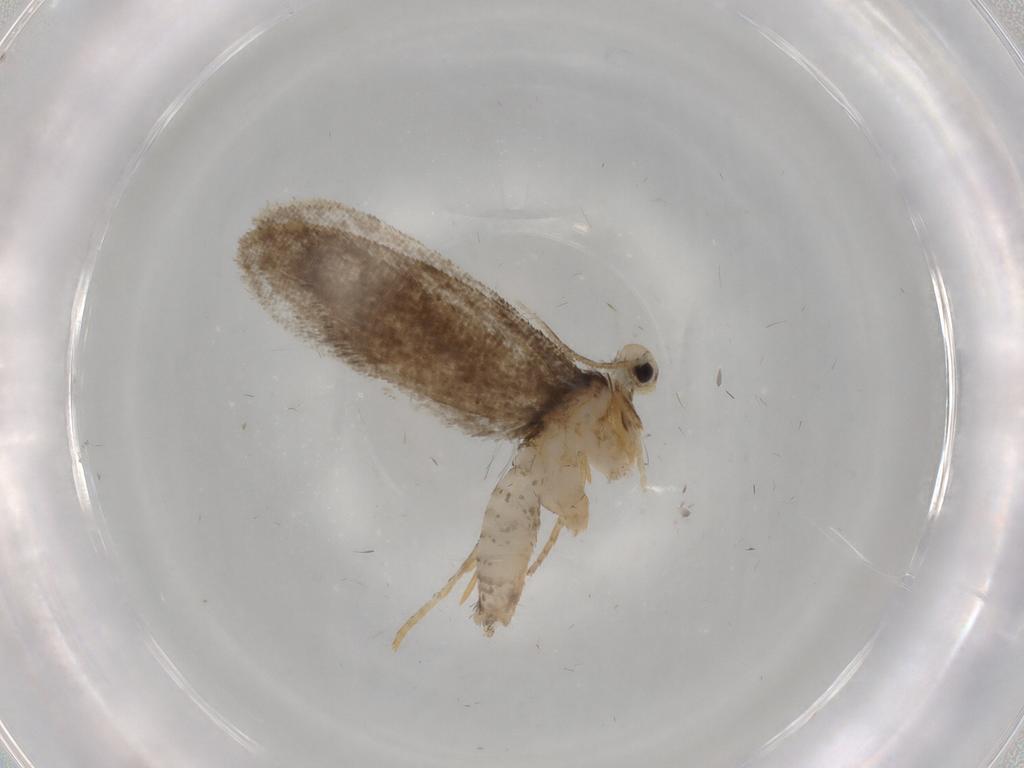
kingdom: Animalia
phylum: Arthropoda
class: Insecta
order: Lepidoptera
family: Psychidae
